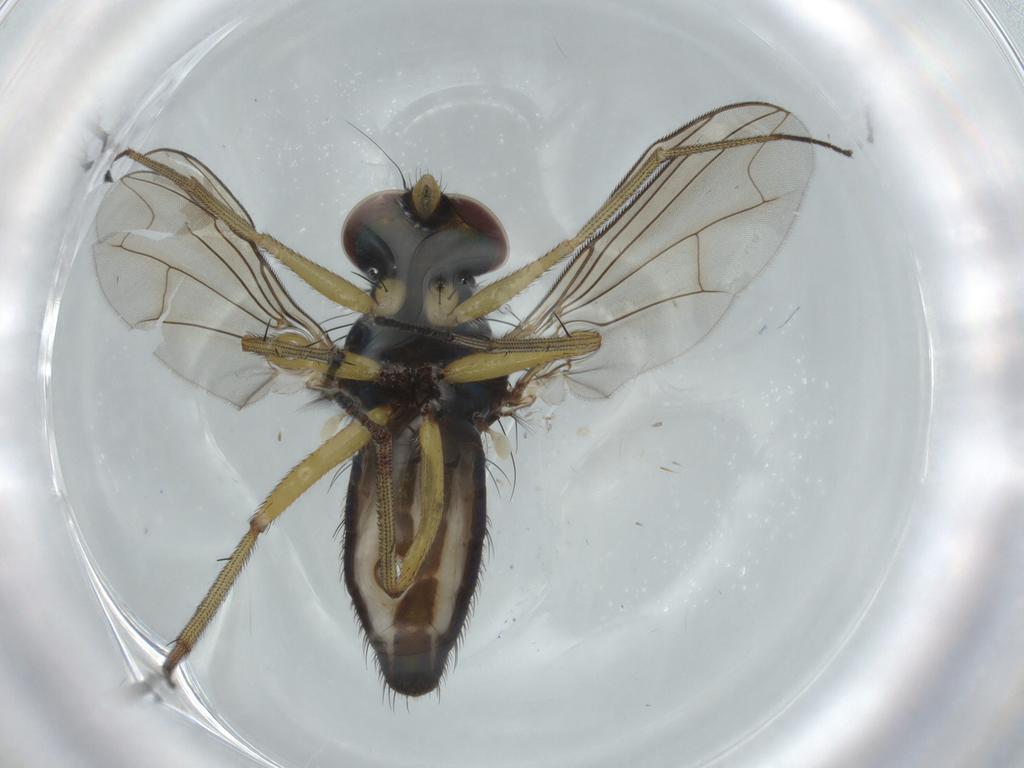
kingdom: Animalia
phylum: Arthropoda
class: Insecta
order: Diptera
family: Dolichopodidae
